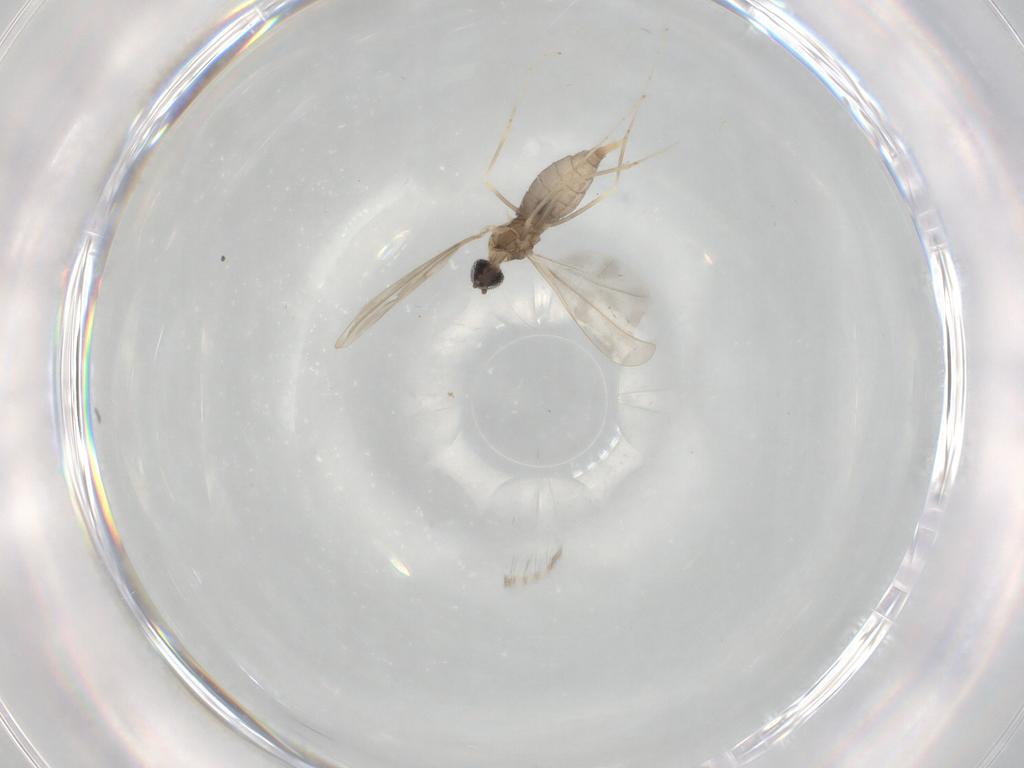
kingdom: Animalia
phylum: Arthropoda
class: Insecta
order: Diptera
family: Cecidomyiidae
